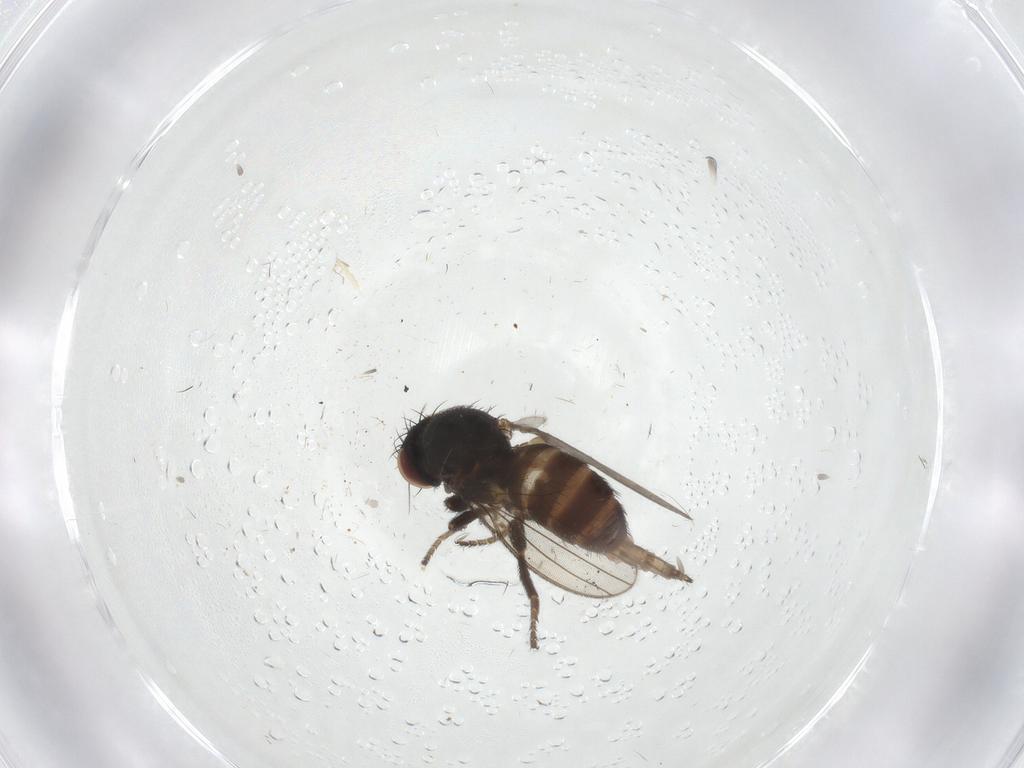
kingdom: Animalia
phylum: Arthropoda
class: Insecta
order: Diptera
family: Milichiidae
